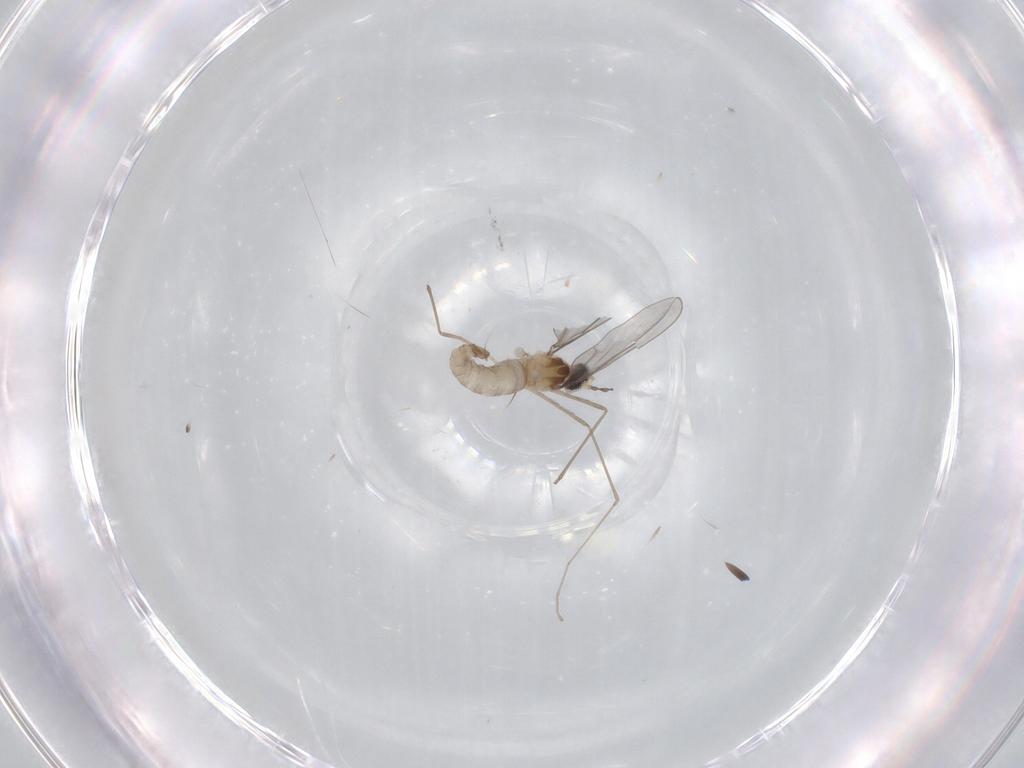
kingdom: Animalia
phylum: Arthropoda
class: Insecta
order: Diptera
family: Cecidomyiidae
